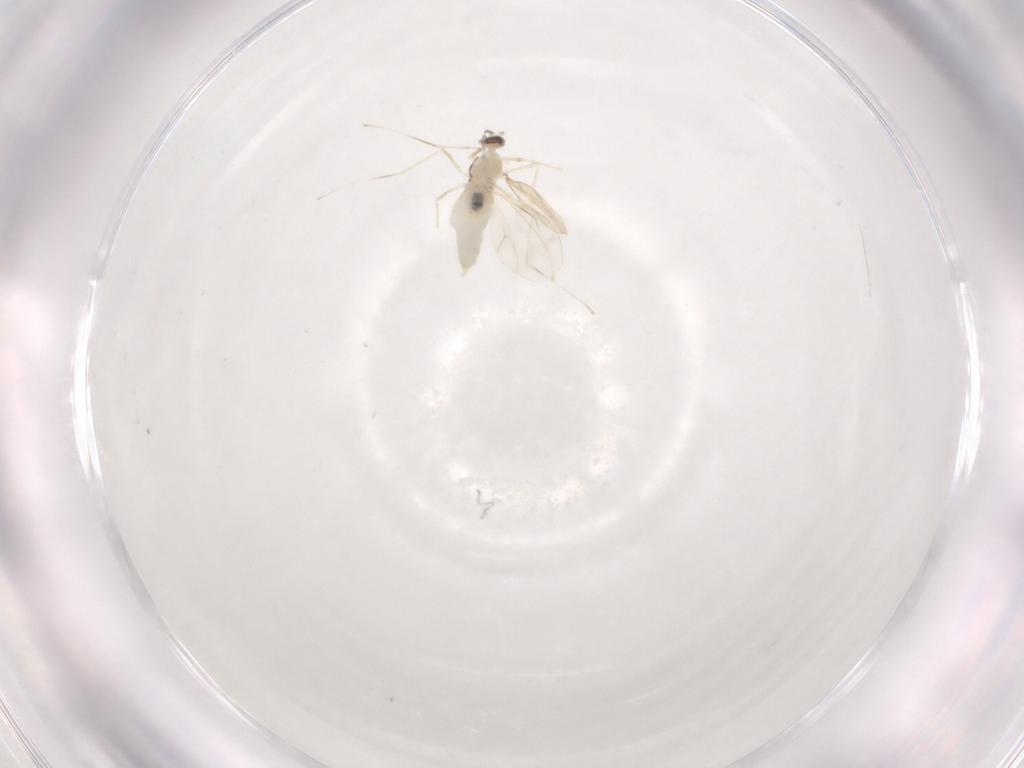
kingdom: Animalia
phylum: Arthropoda
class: Insecta
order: Diptera
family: Cecidomyiidae
